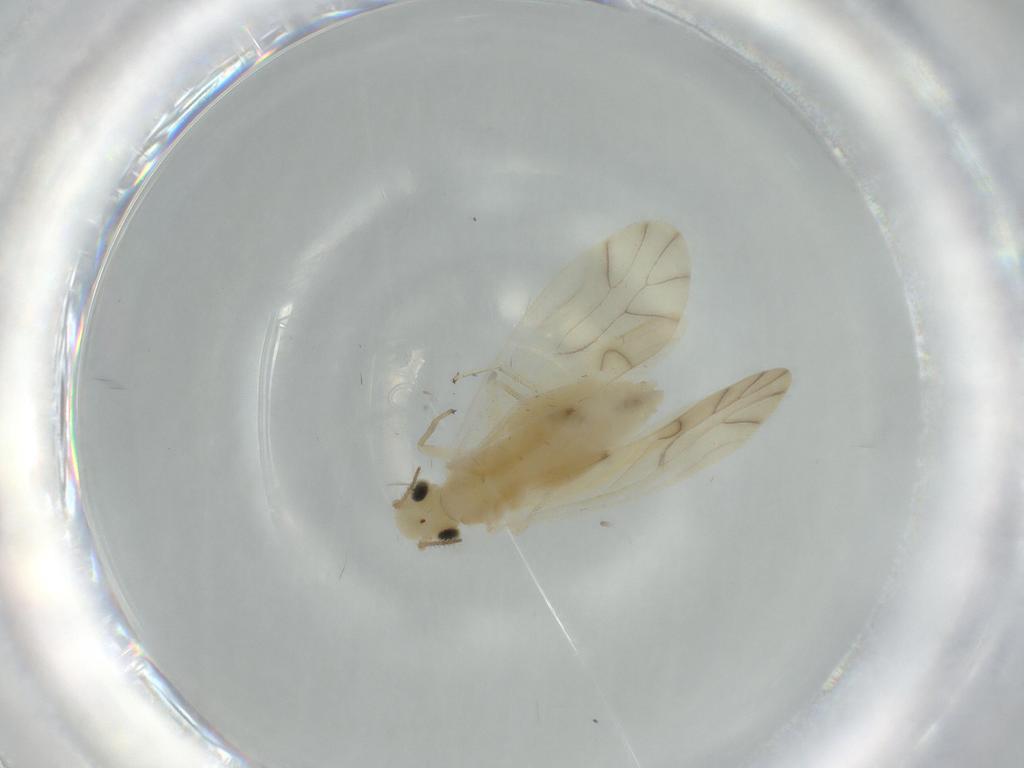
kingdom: Animalia
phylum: Arthropoda
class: Insecta
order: Psocodea
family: Caeciliusidae
